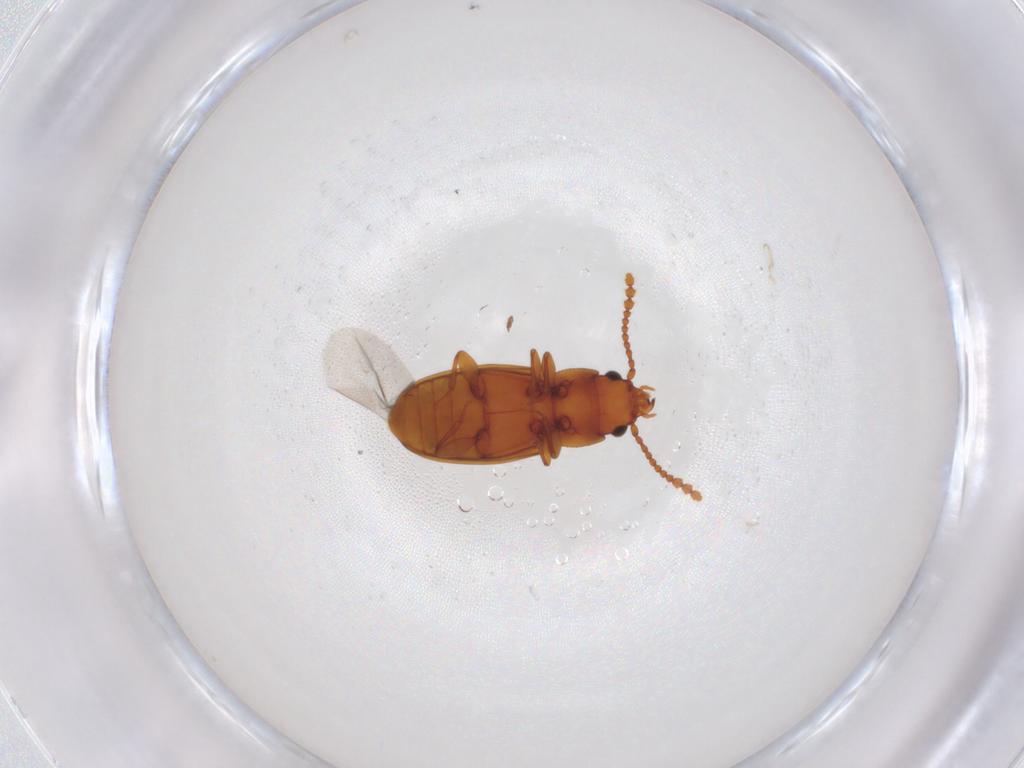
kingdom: Animalia
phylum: Arthropoda
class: Insecta
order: Coleoptera
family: Laemophloeidae
